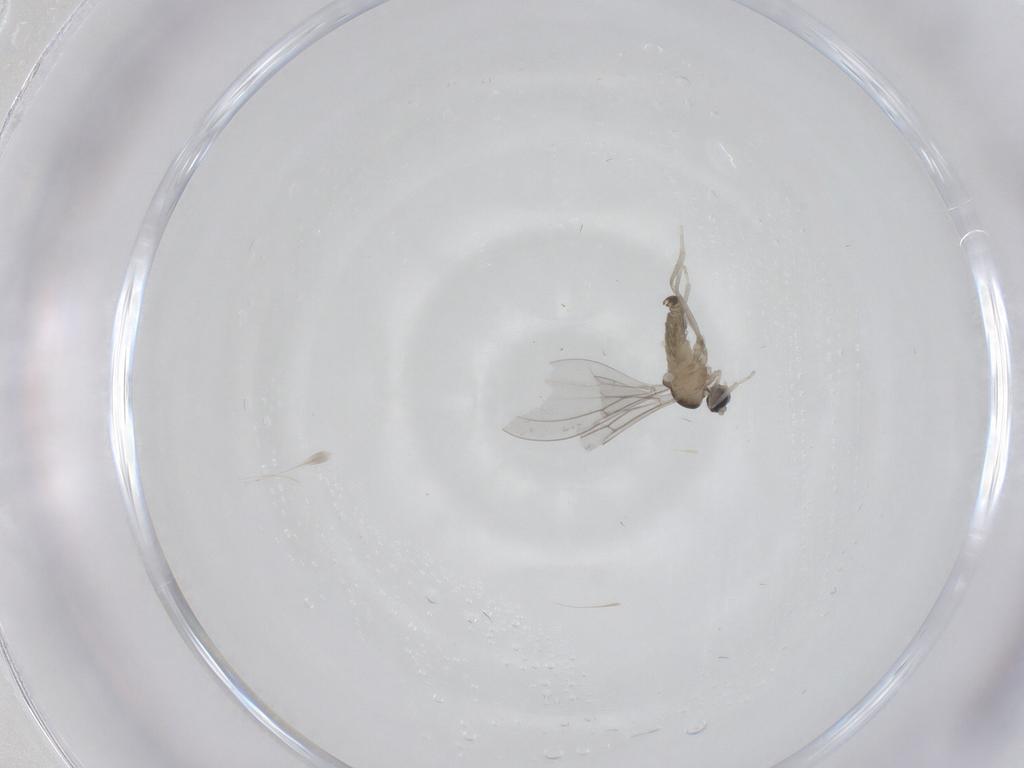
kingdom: Animalia
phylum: Arthropoda
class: Insecta
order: Diptera
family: Cecidomyiidae
